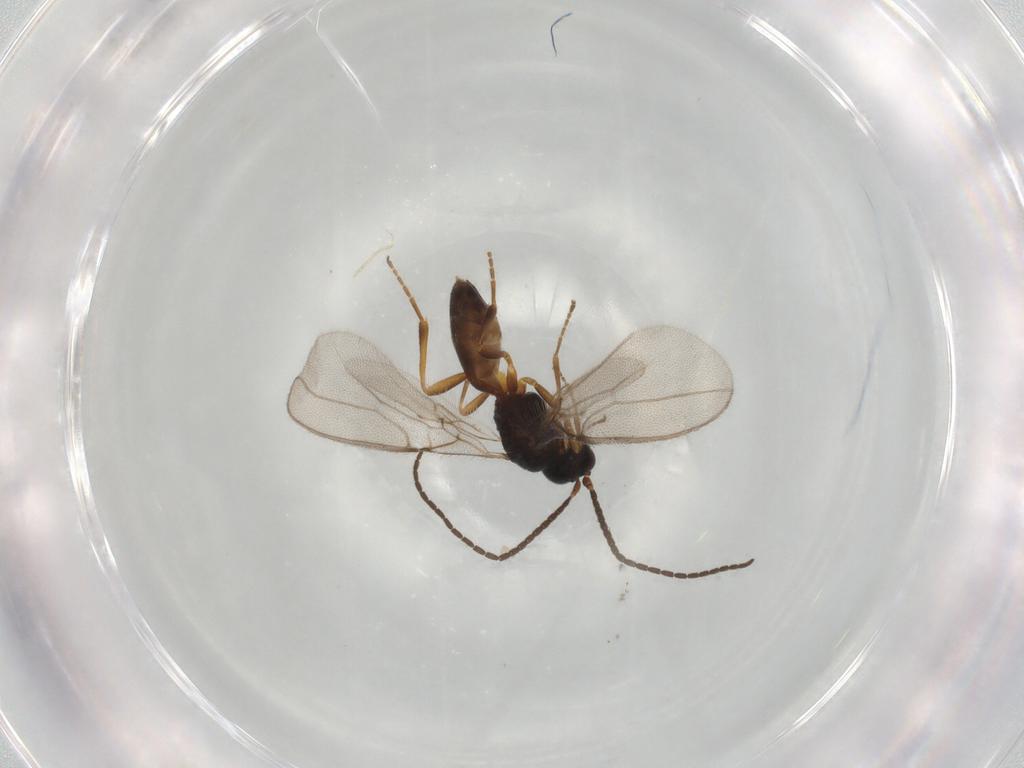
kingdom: Animalia
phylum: Arthropoda
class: Insecta
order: Hymenoptera
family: Braconidae
